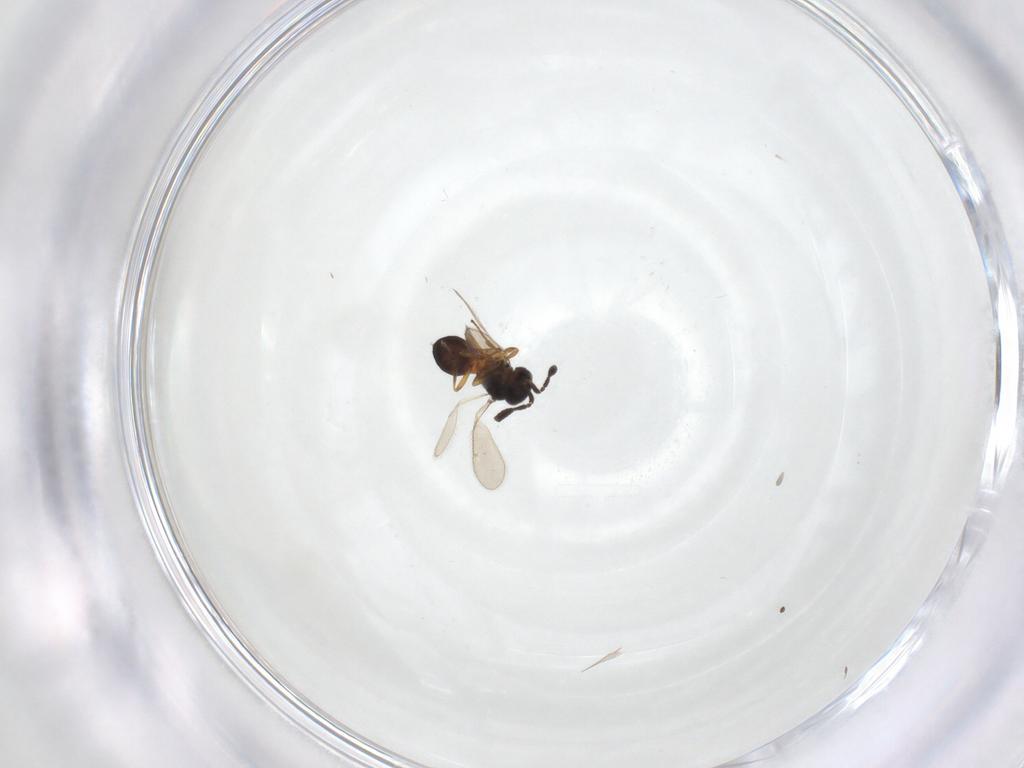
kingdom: Animalia
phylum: Arthropoda
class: Insecta
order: Hymenoptera
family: Scelionidae
